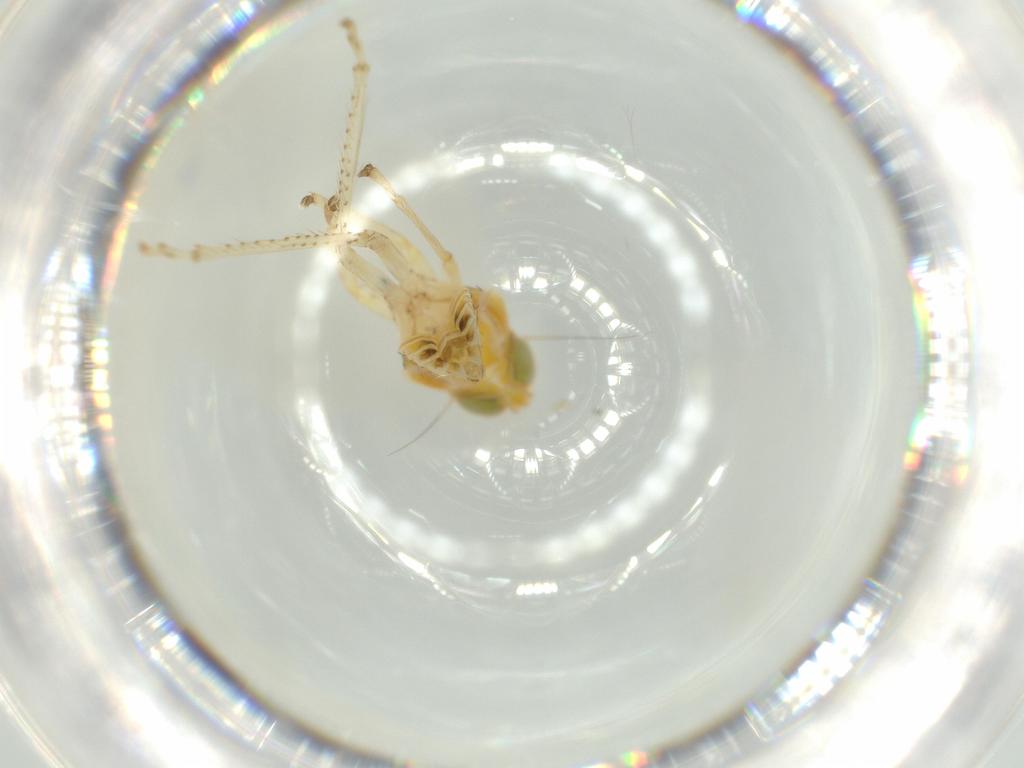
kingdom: Animalia
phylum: Arthropoda
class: Insecta
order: Hemiptera
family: Cicadellidae
